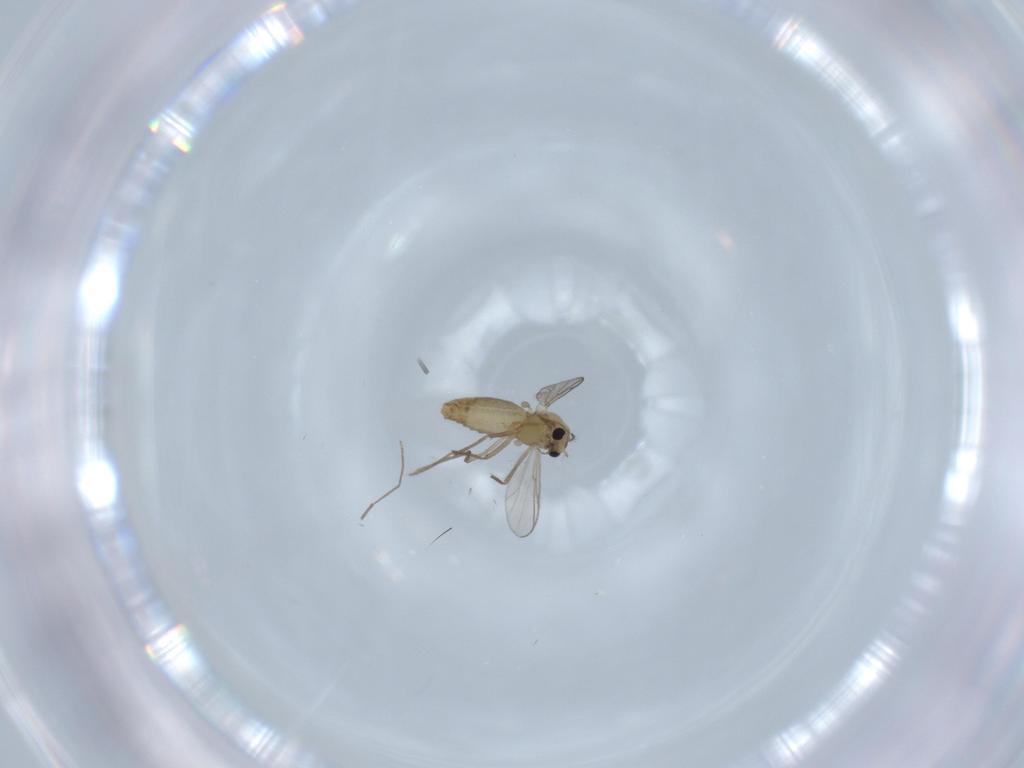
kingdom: Animalia
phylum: Arthropoda
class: Insecta
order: Diptera
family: Chironomidae
